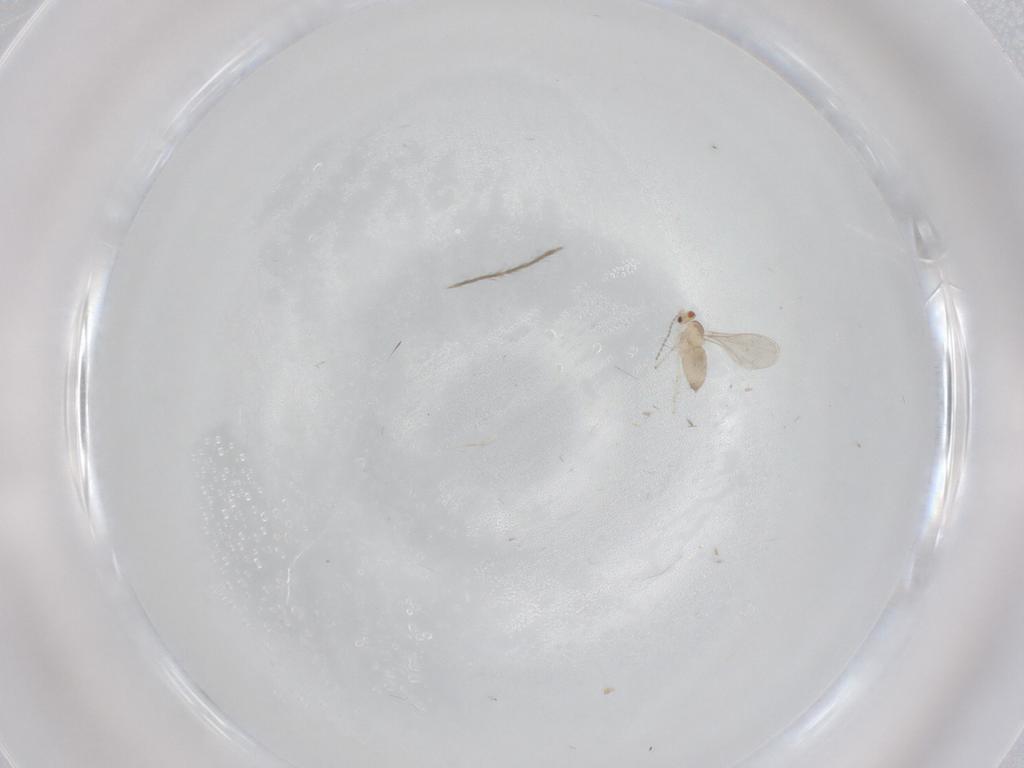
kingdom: Animalia
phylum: Arthropoda
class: Insecta
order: Diptera
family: Cecidomyiidae
